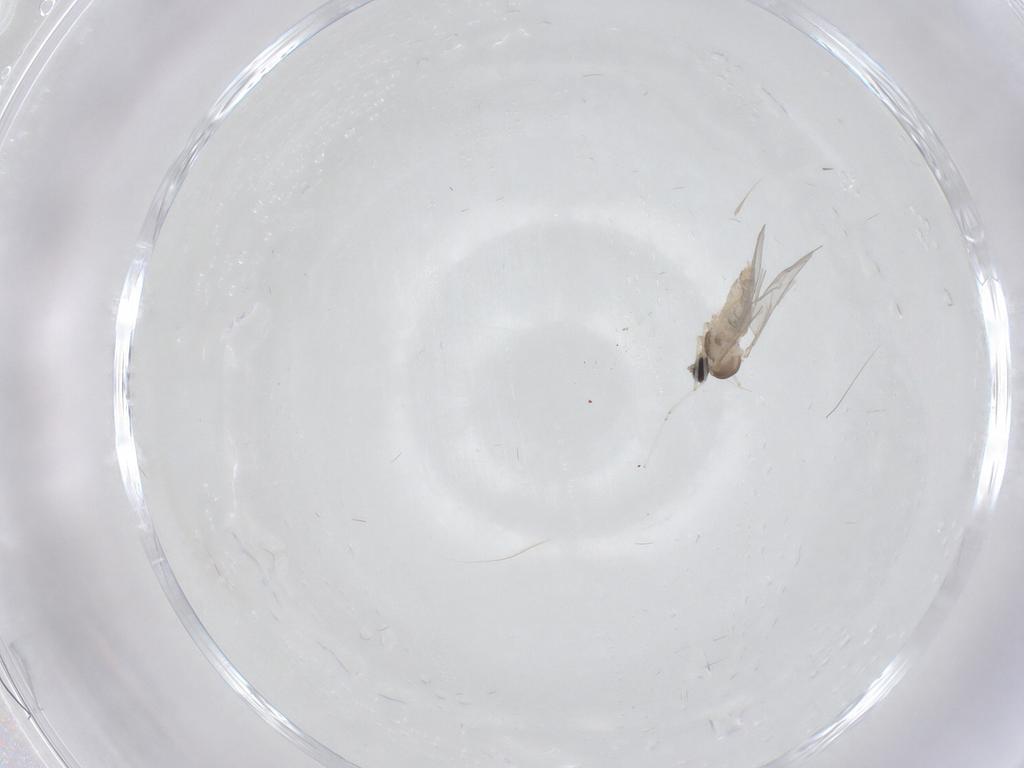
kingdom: Animalia
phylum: Arthropoda
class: Insecta
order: Diptera
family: Cecidomyiidae
